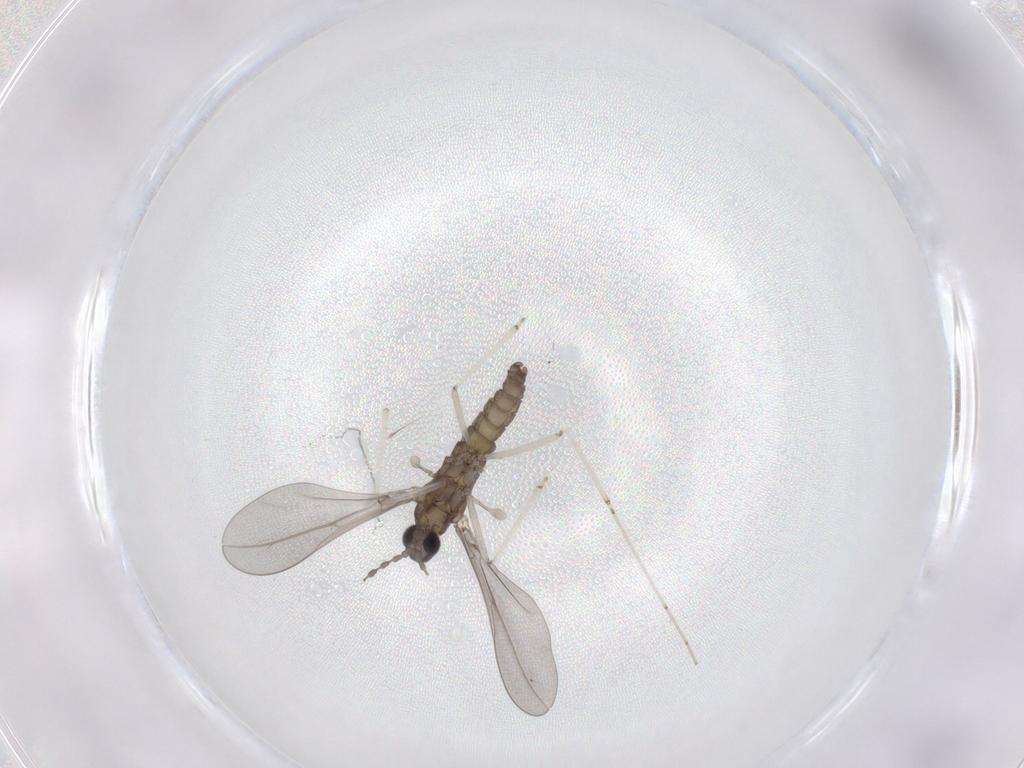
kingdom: Animalia
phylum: Arthropoda
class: Insecta
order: Diptera
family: Cecidomyiidae
